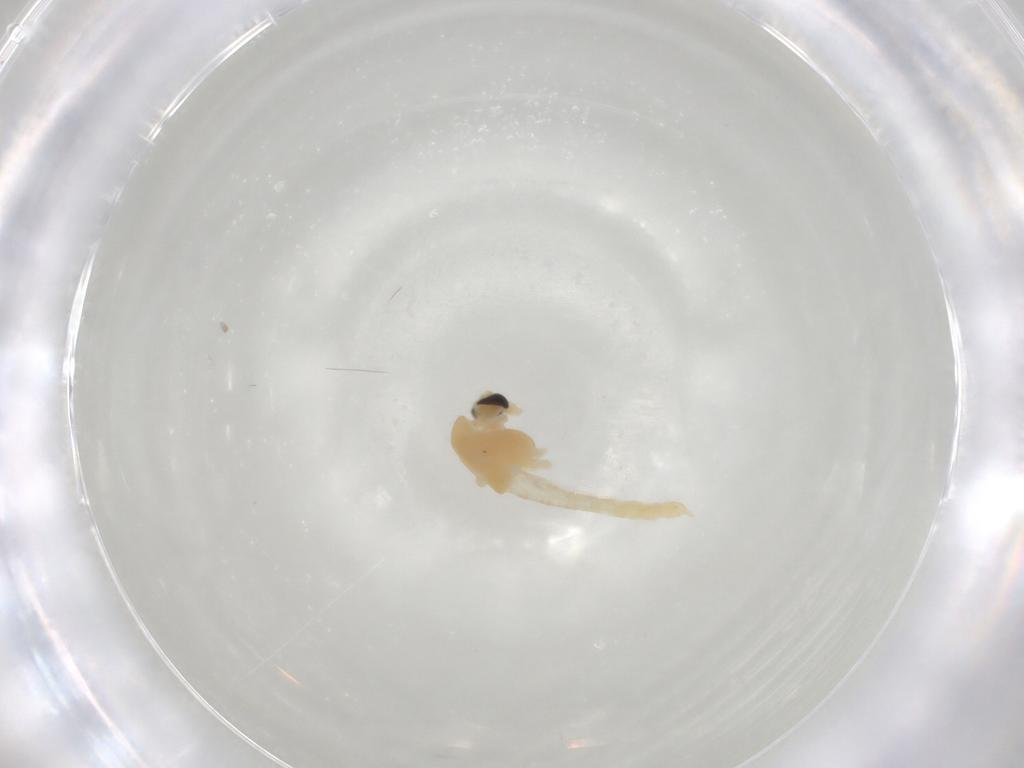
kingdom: Animalia
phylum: Arthropoda
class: Insecta
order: Diptera
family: Chironomidae
